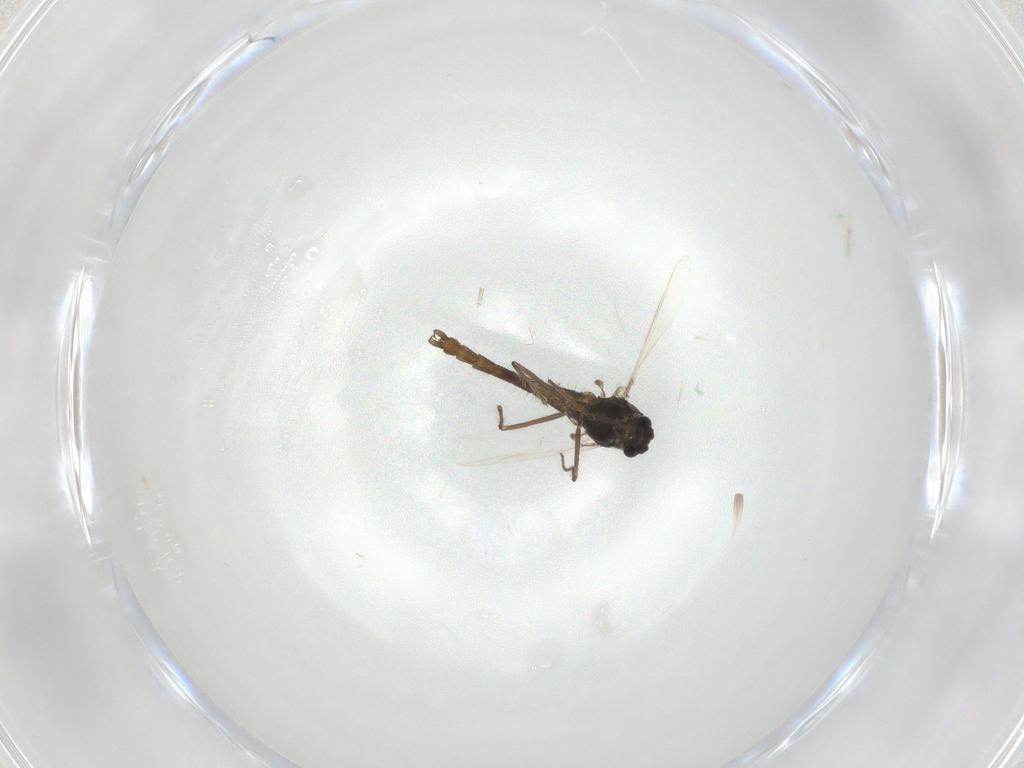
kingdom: Animalia
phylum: Arthropoda
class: Insecta
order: Diptera
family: Chironomidae
